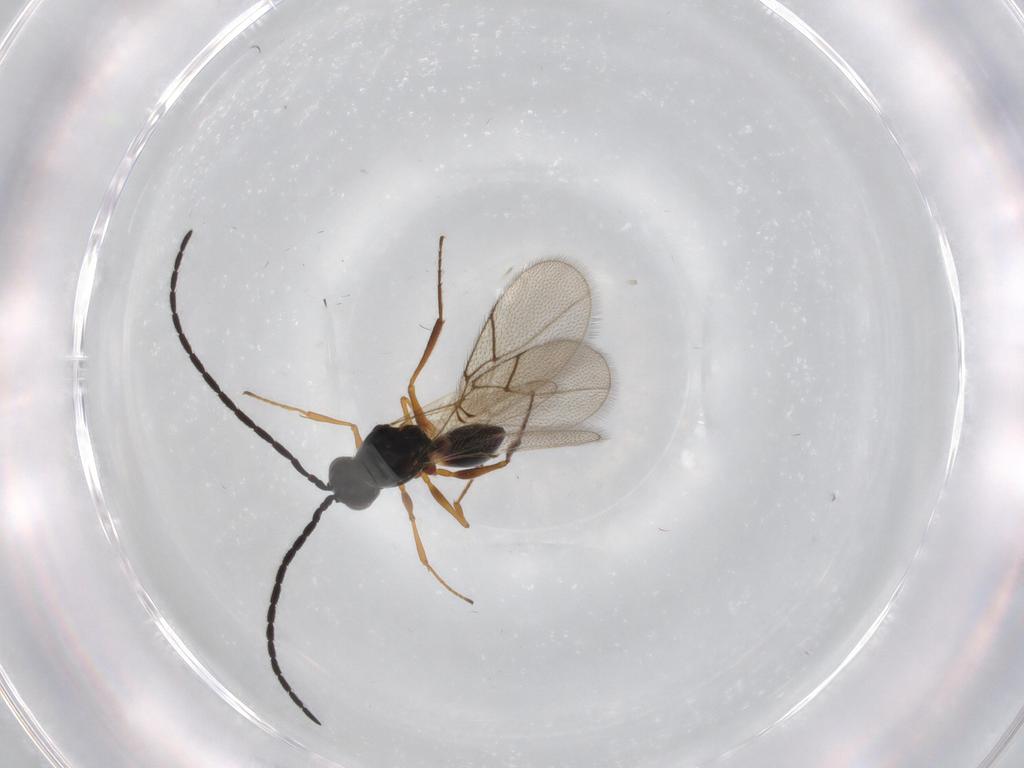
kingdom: Animalia
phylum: Arthropoda
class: Insecta
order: Hymenoptera
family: Figitidae
